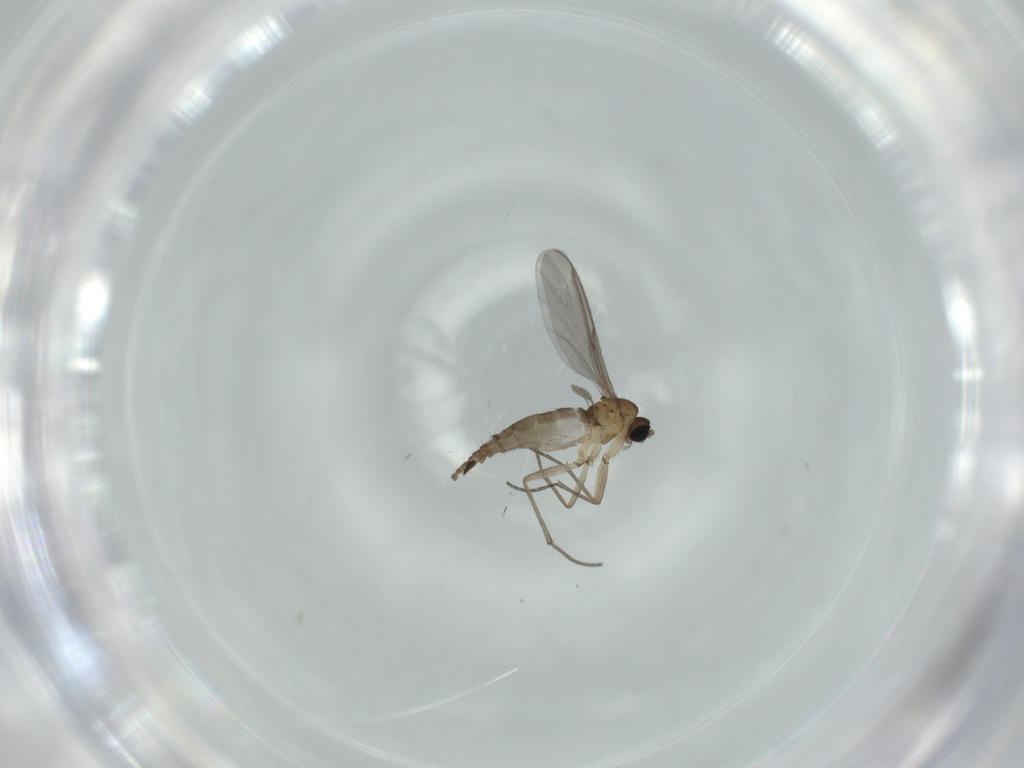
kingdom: Animalia
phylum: Arthropoda
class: Insecta
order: Diptera
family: Sciaridae
